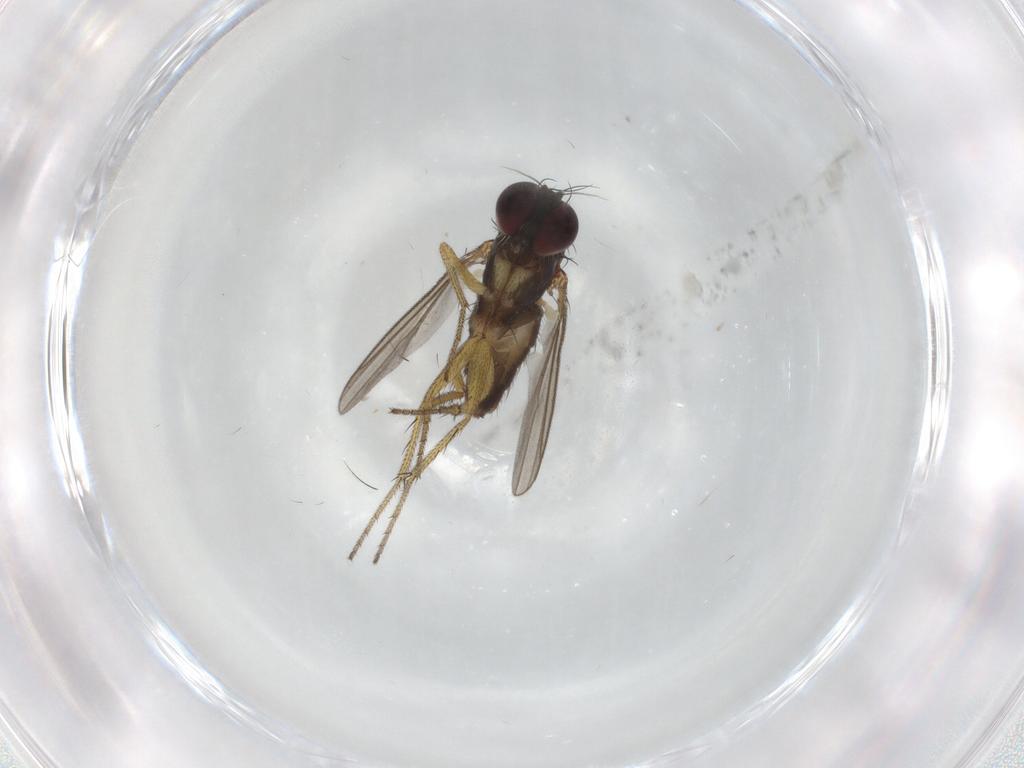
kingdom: Animalia
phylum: Arthropoda
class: Insecta
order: Diptera
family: Dolichopodidae
